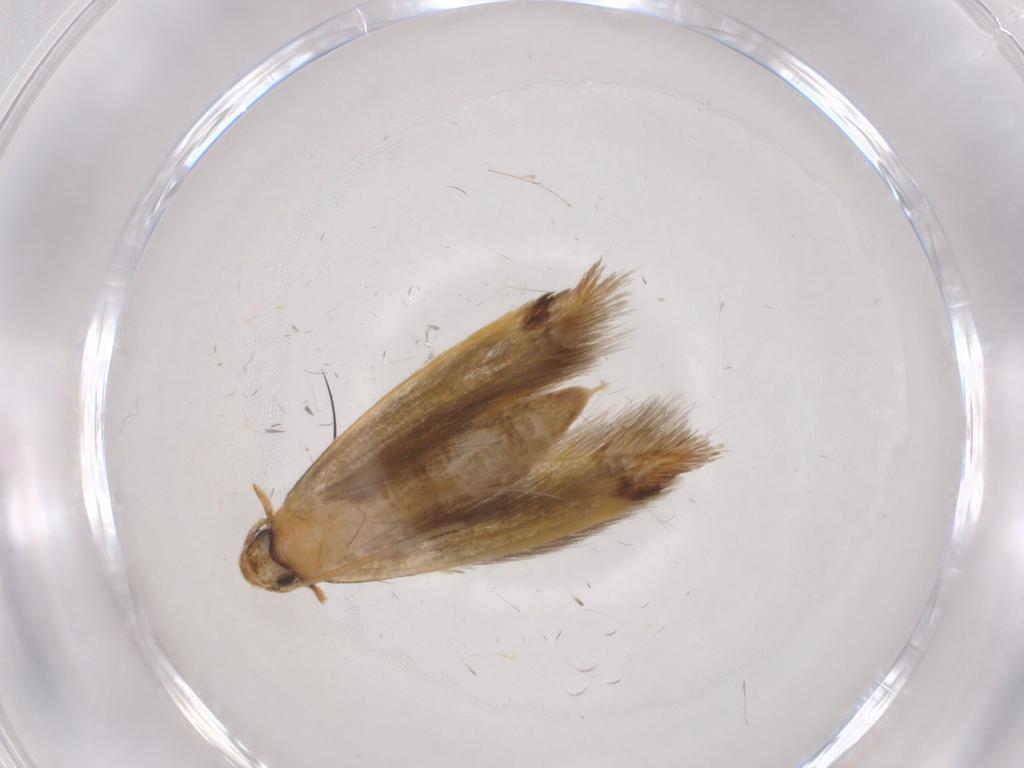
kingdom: Animalia
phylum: Arthropoda
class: Insecta
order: Lepidoptera
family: Tineidae
